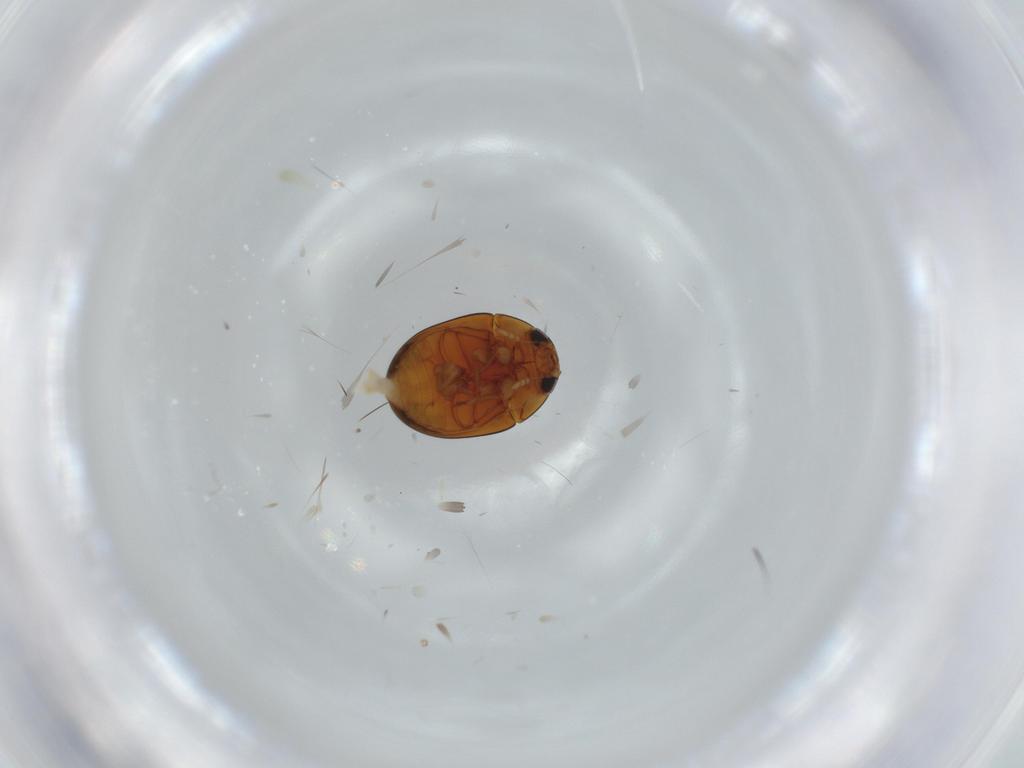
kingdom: Animalia
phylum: Arthropoda
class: Insecta
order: Coleoptera
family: Phalacridae
